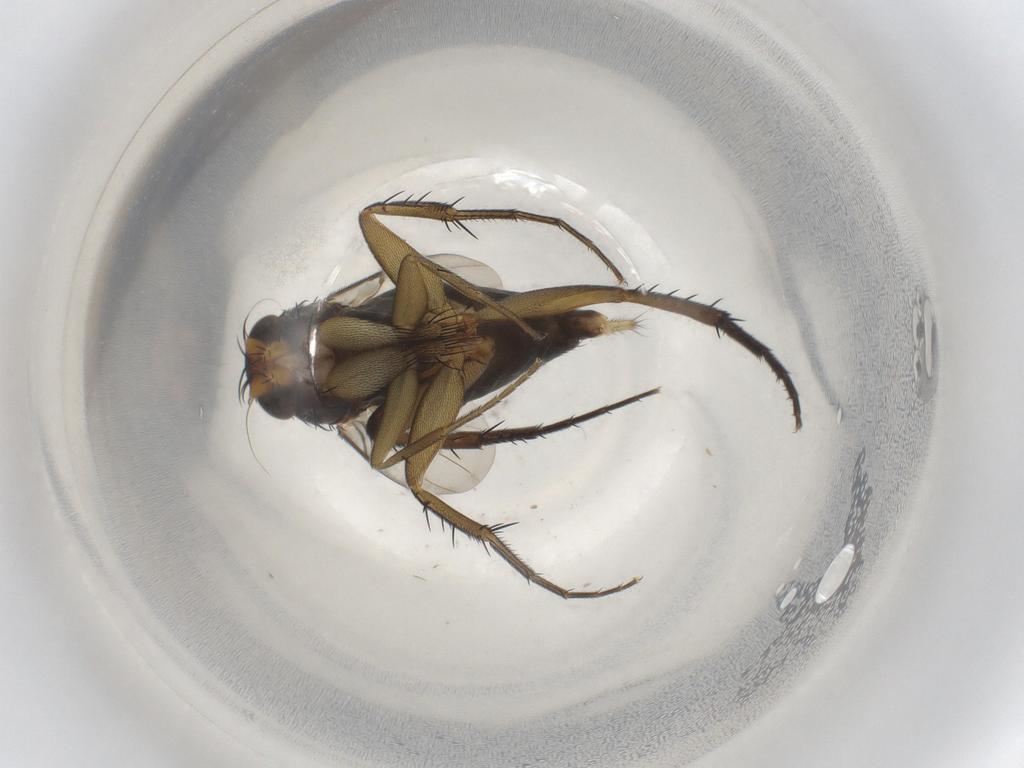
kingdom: Animalia
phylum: Arthropoda
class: Insecta
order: Diptera
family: Phoridae
